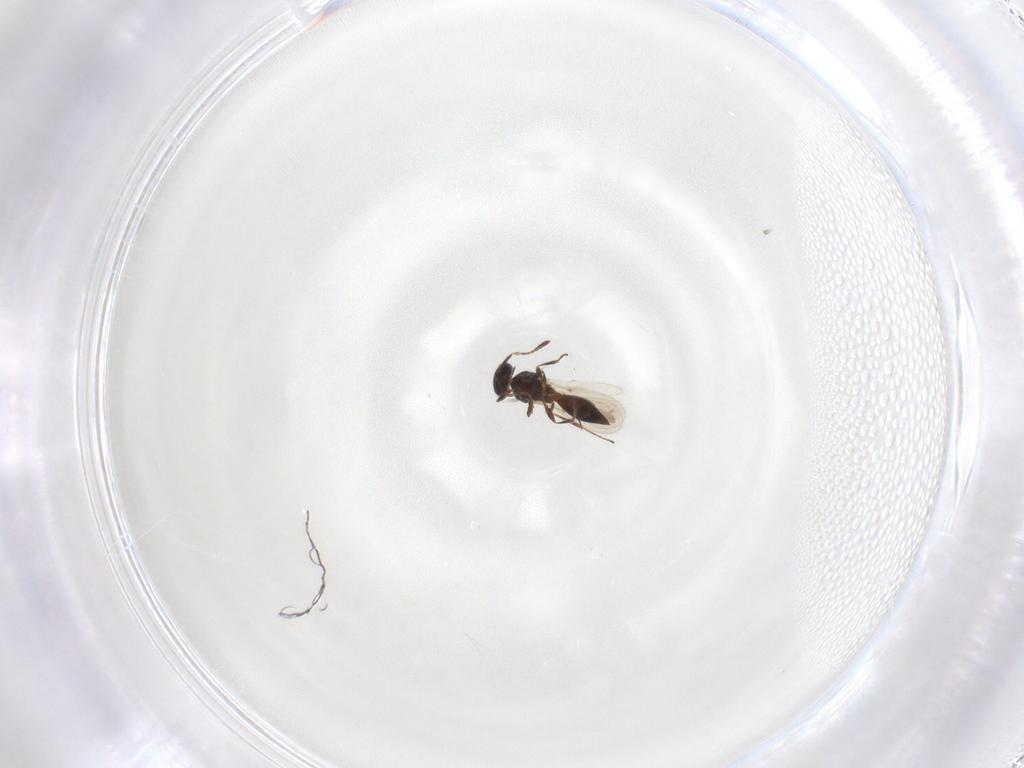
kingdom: Animalia
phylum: Arthropoda
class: Insecta
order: Hymenoptera
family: Platygastridae
